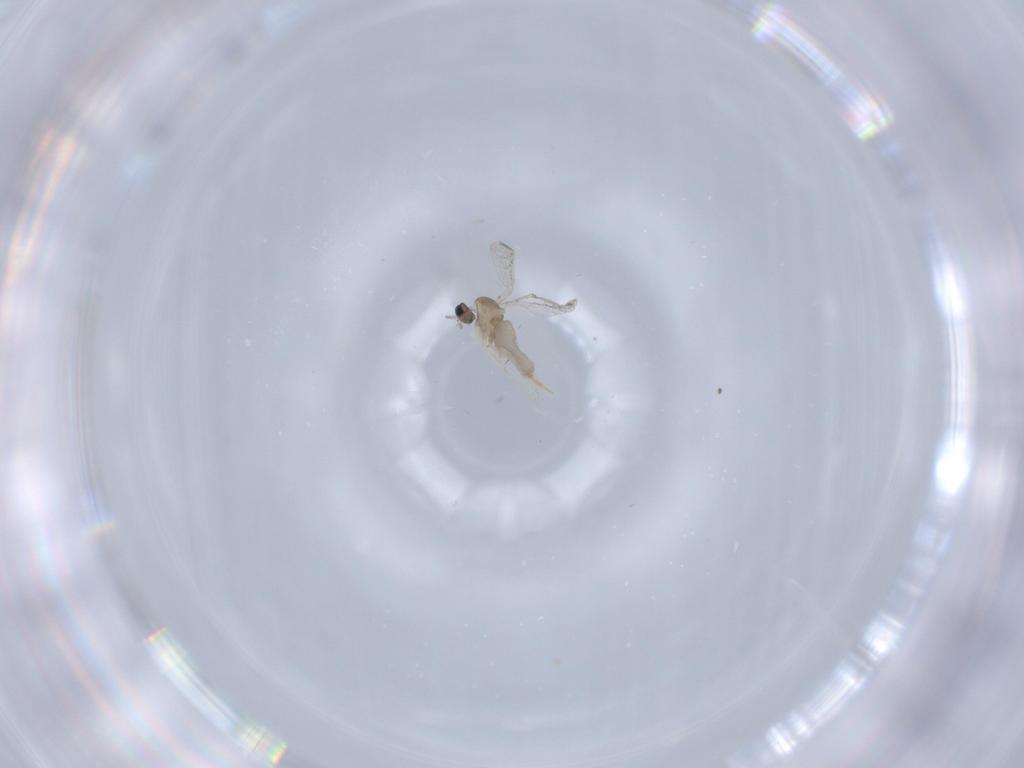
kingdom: Animalia
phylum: Arthropoda
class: Insecta
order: Diptera
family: Cecidomyiidae
